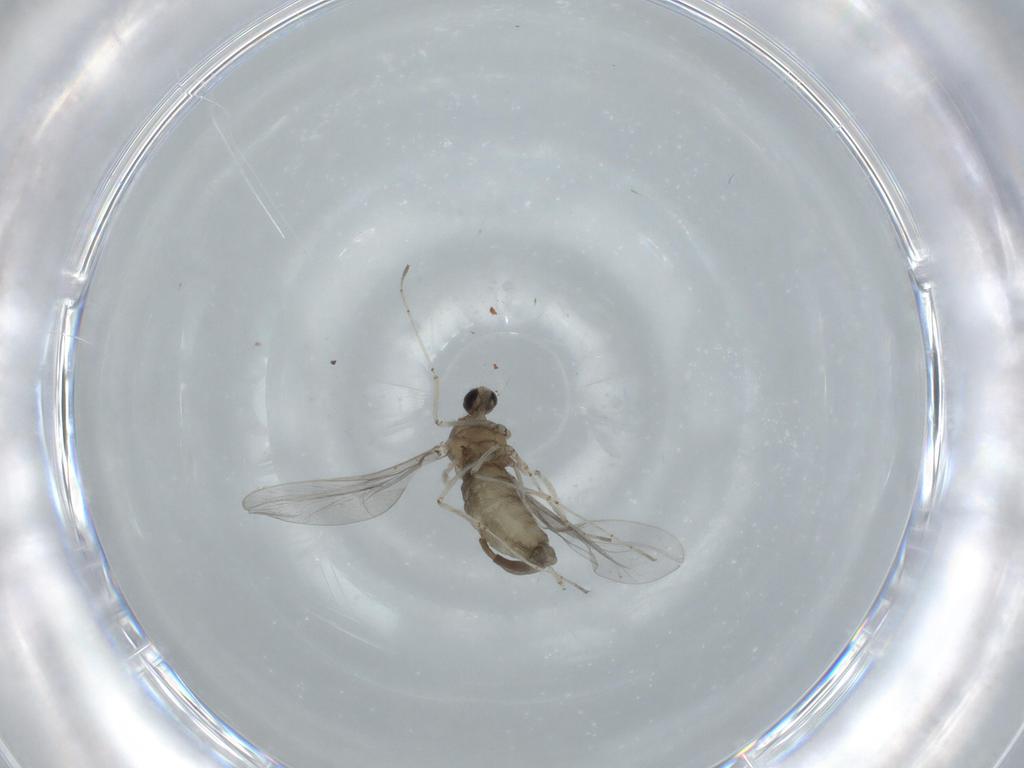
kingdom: Animalia
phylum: Arthropoda
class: Insecta
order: Diptera
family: Cecidomyiidae
